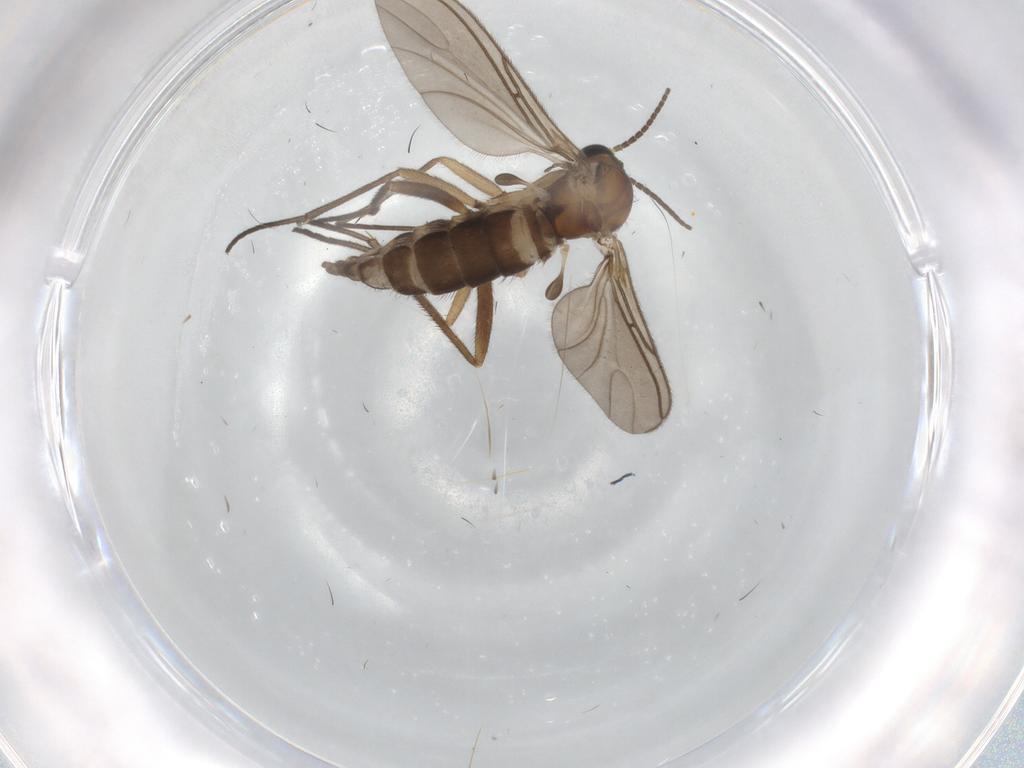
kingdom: Animalia
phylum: Arthropoda
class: Insecta
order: Diptera
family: Sciaridae
